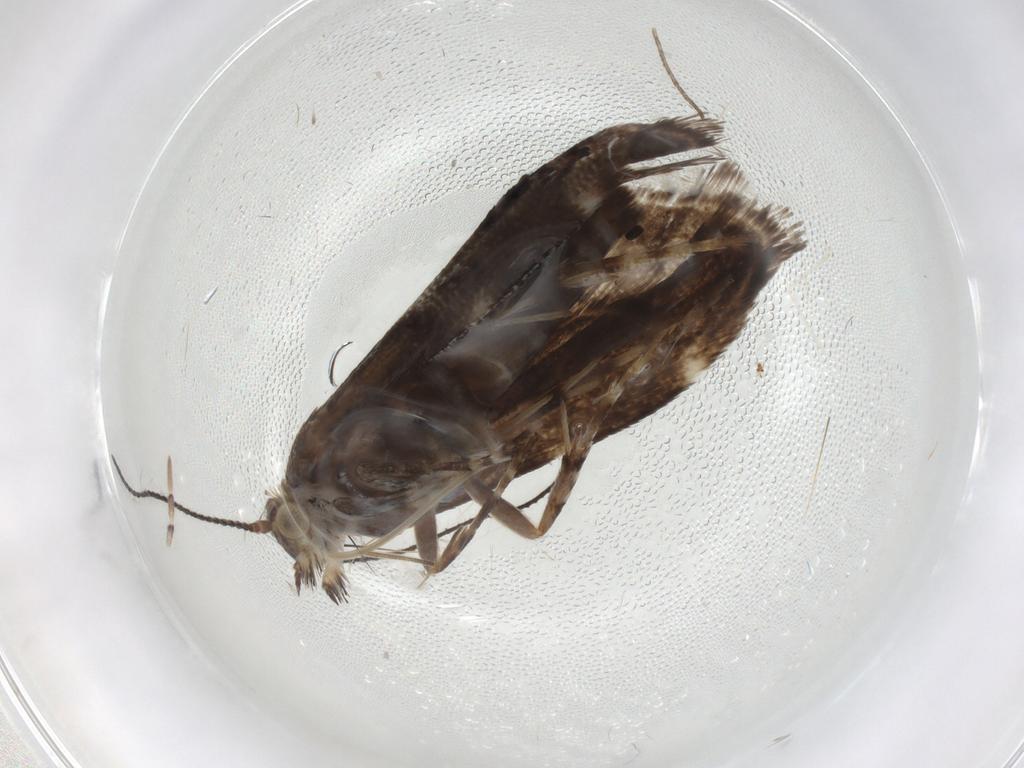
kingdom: Animalia
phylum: Arthropoda
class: Insecta
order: Lepidoptera
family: Choreutidae
